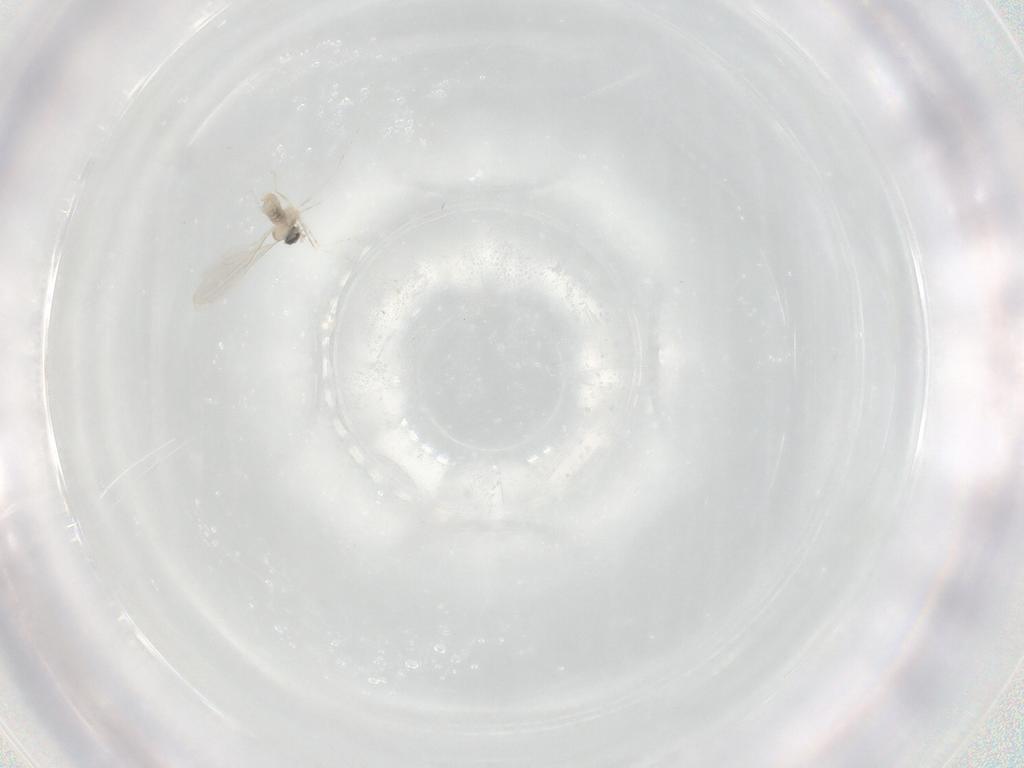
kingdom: Animalia
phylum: Arthropoda
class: Insecta
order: Diptera
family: Cecidomyiidae
